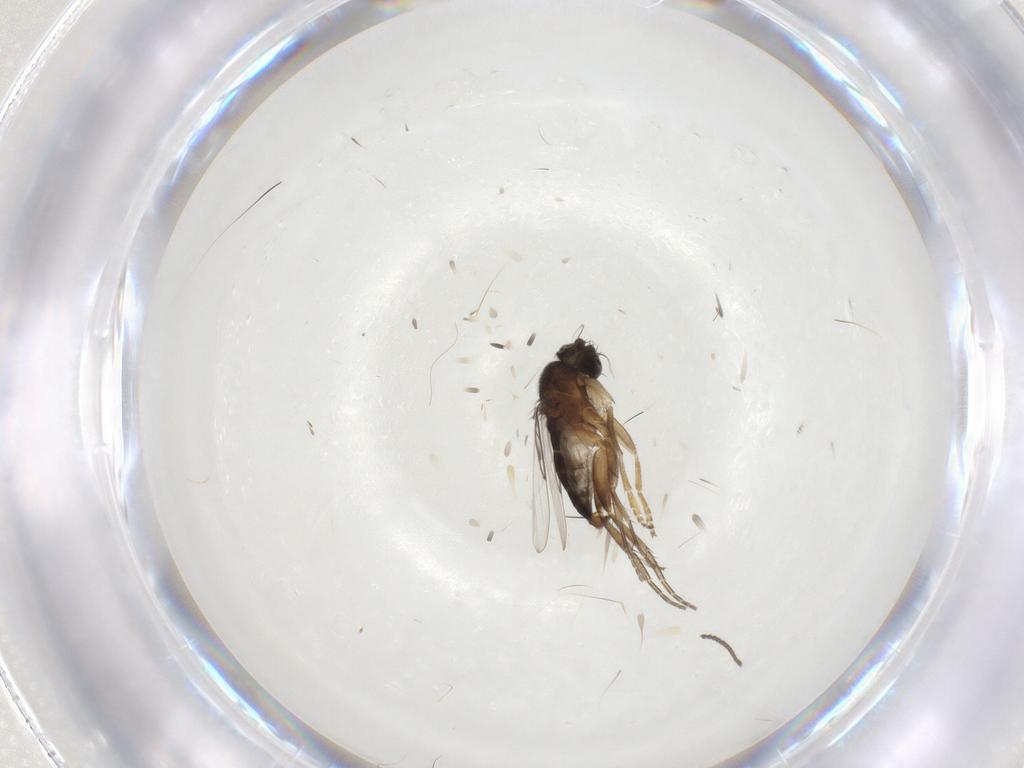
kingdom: Animalia
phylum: Arthropoda
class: Insecta
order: Diptera
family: Phoridae
